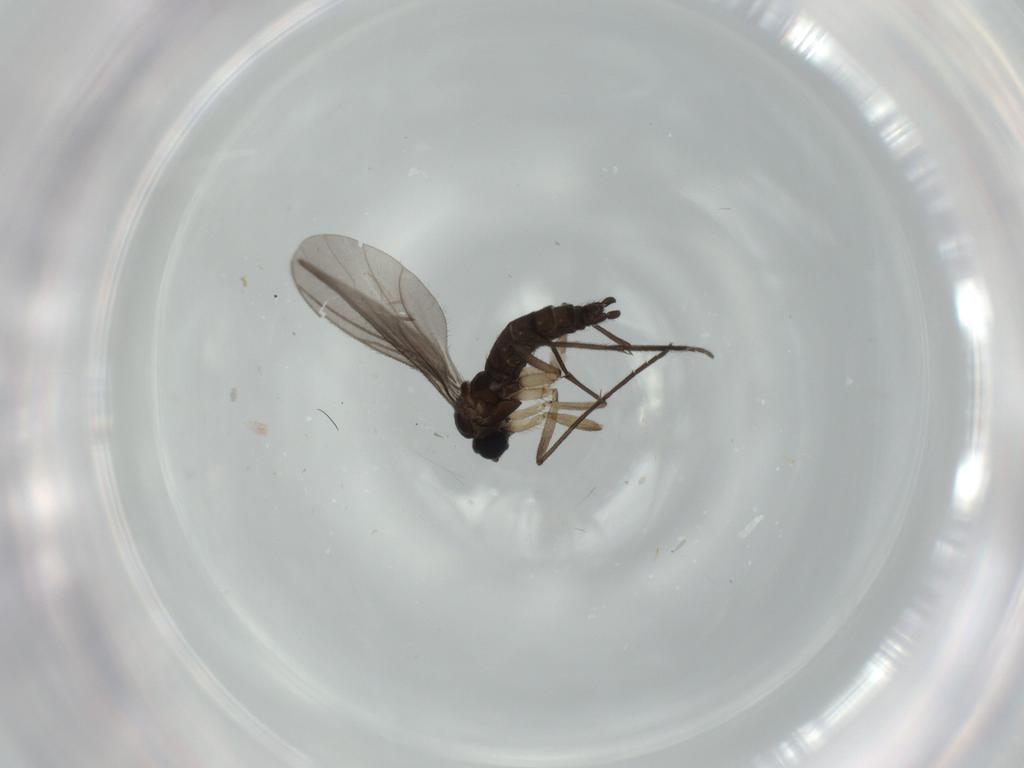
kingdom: Animalia
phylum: Arthropoda
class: Insecta
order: Diptera
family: Sciaridae
